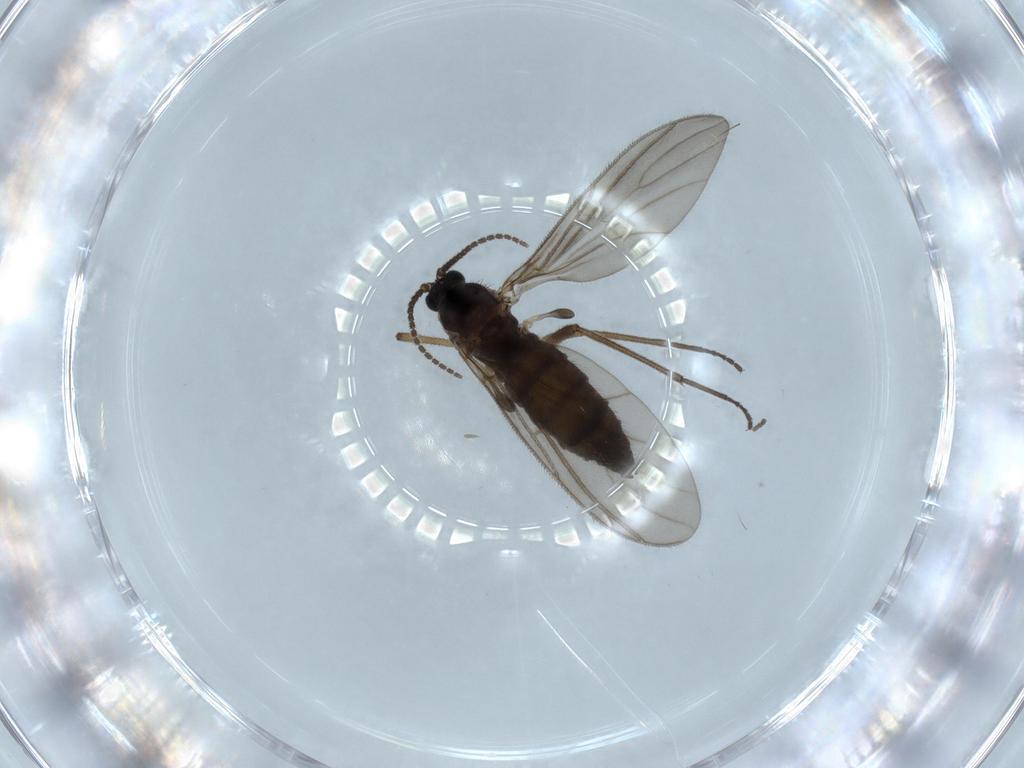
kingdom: Animalia
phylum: Arthropoda
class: Insecta
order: Diptera
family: Sciaridae
